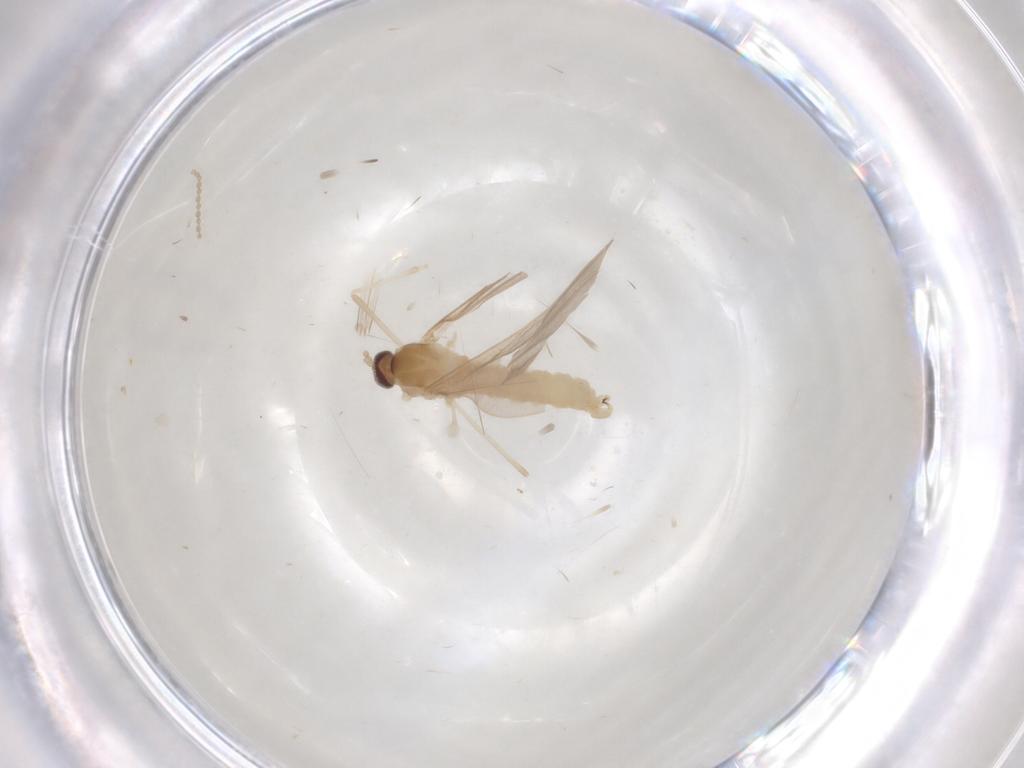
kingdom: Animalia
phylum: Arthropoda
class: Insecta
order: Diptera
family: Cecidomyiidae
